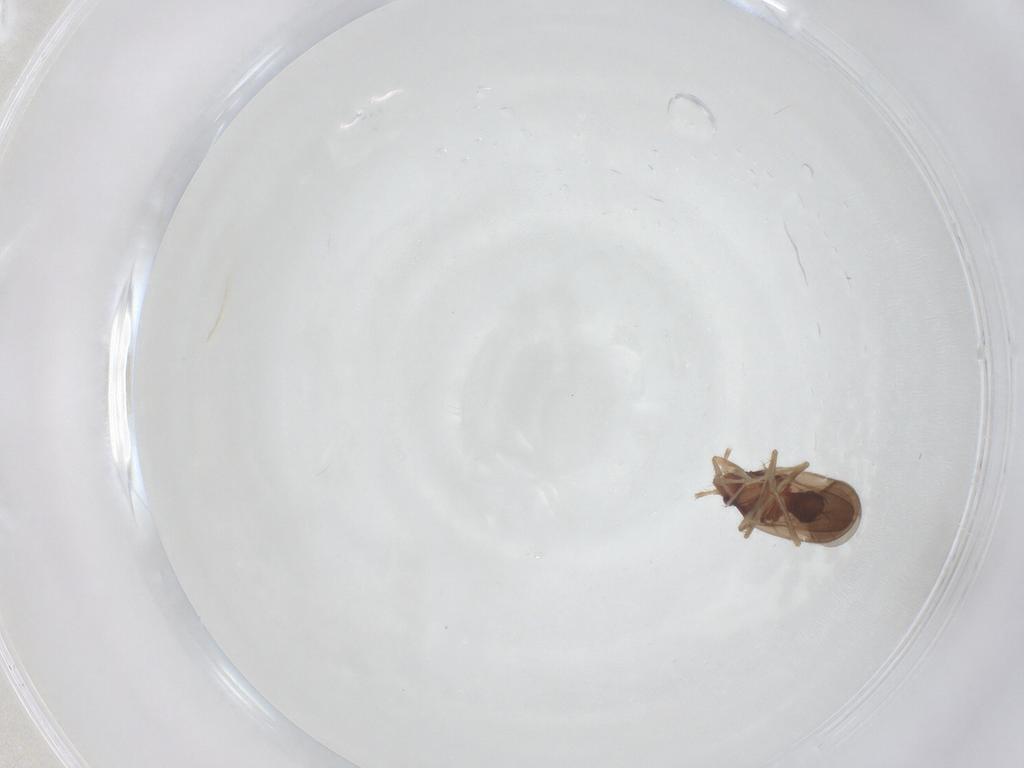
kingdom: Animalia
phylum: Arthropoda
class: Insecta
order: Hemiptera
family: Ceratocombidae
